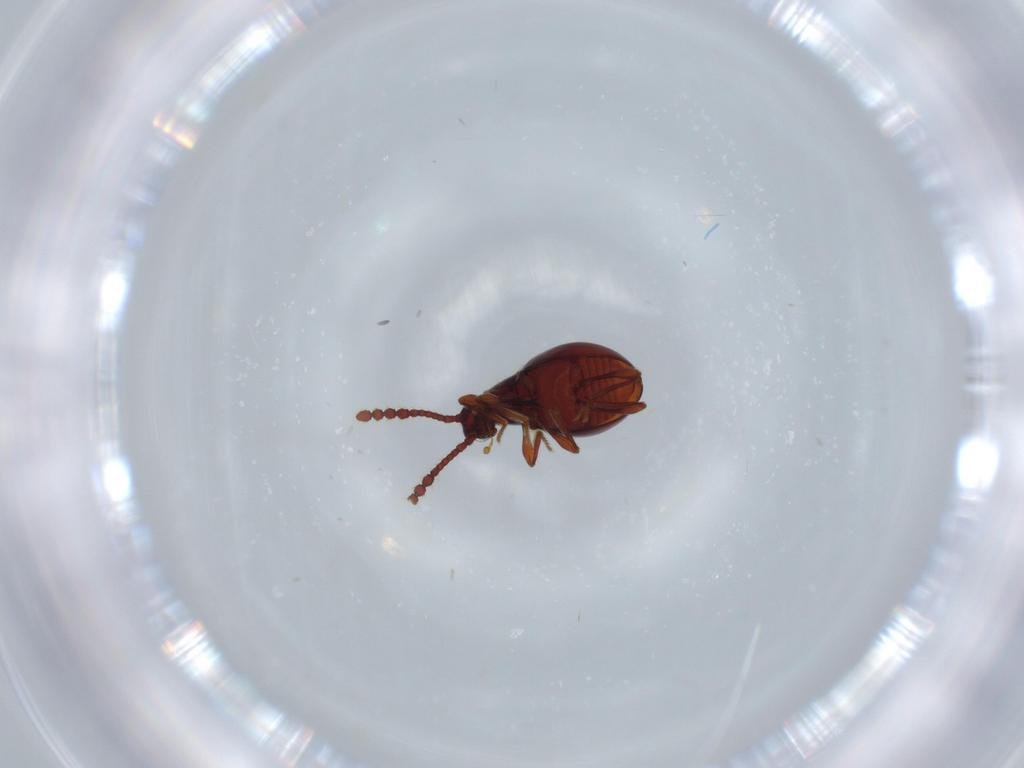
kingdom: Animalia
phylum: Arthropoda
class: Insecta
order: Coleoptera
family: Staphylinidae
